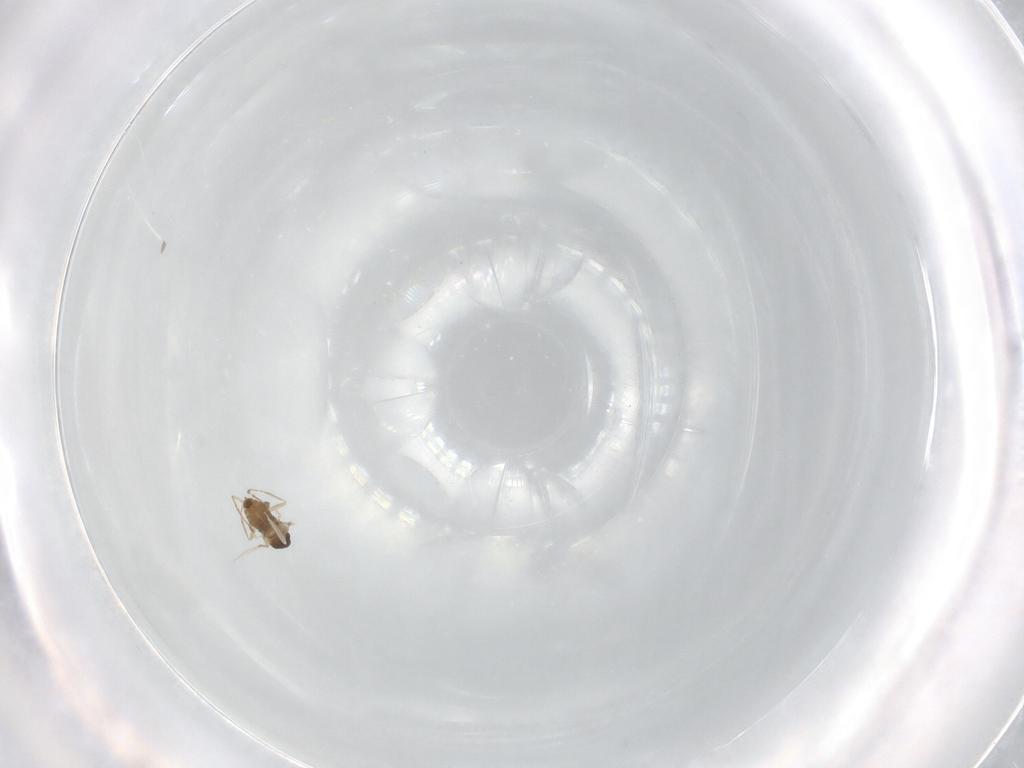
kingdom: Animalia
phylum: Arthropoda
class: Insecta
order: Diptera
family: Cecidomyiidae
